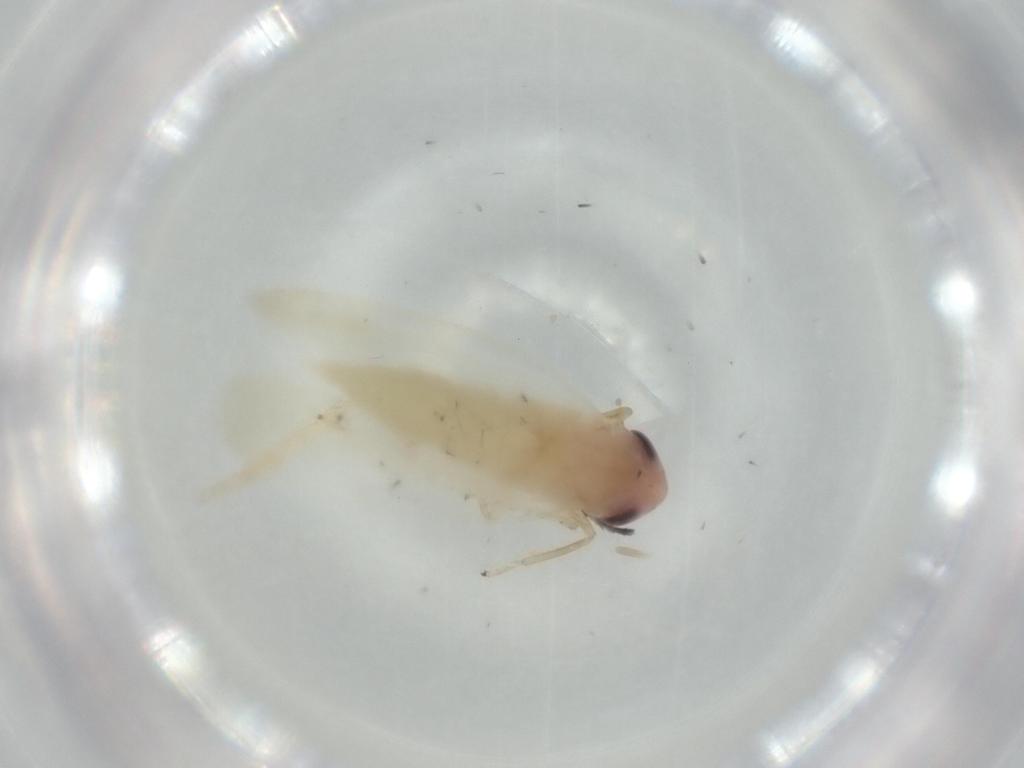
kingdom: Animalia
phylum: Arthropoda
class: Insecta
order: Hemiptera
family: Cicadellidae
